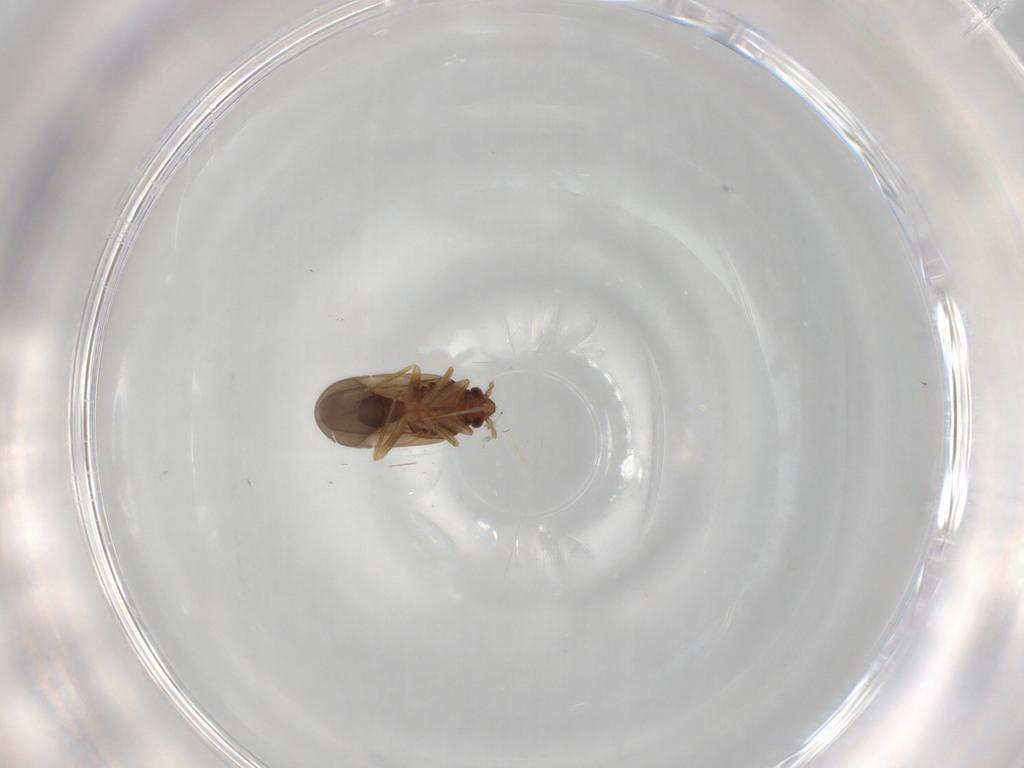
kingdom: Animalia
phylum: Arthropoda
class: Insecta
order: Hemiptera
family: Ceratocombidae
